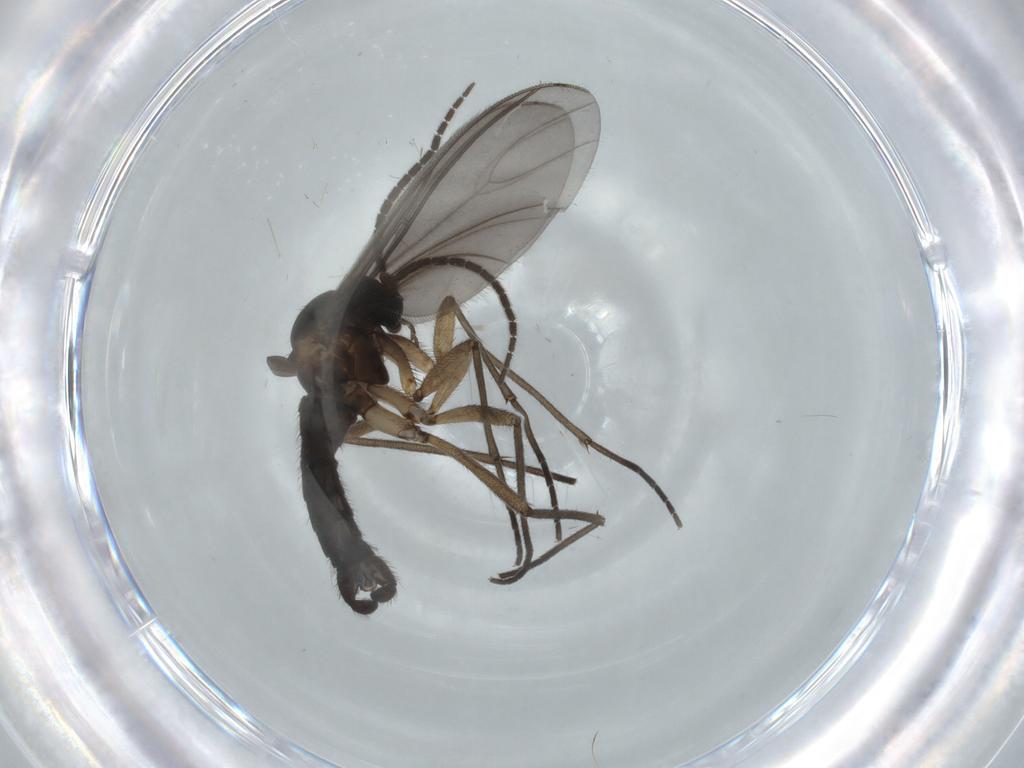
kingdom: Animalia
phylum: Arthropoda
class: Insecta
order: Diptera
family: Sciaridae
